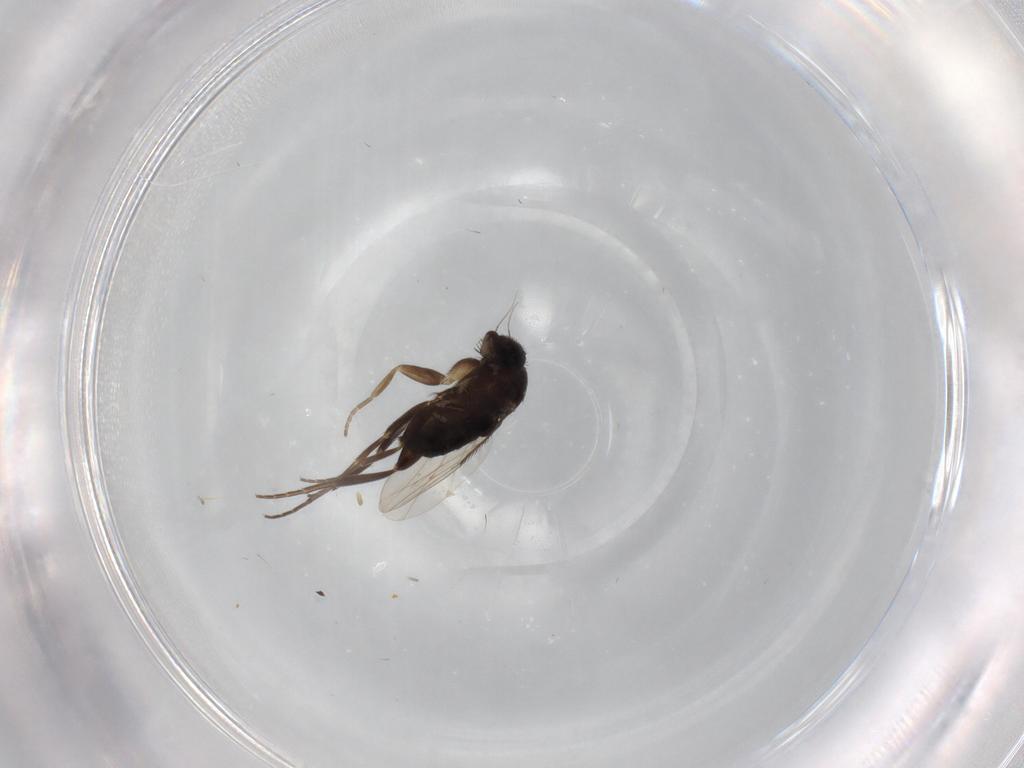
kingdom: Animalia
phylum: Arthropoda
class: Insecta
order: Diptera
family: Phoridae
